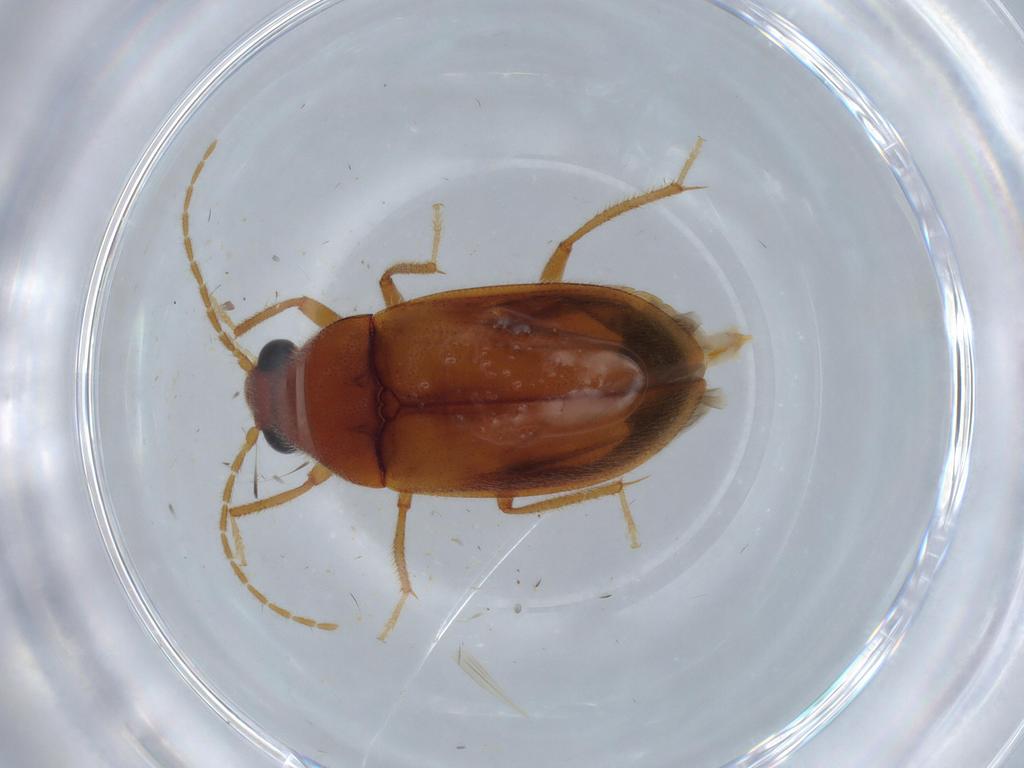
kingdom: Animalia
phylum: Arthropoda
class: Insecta
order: Coleoptera
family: Ptilodactylidae
